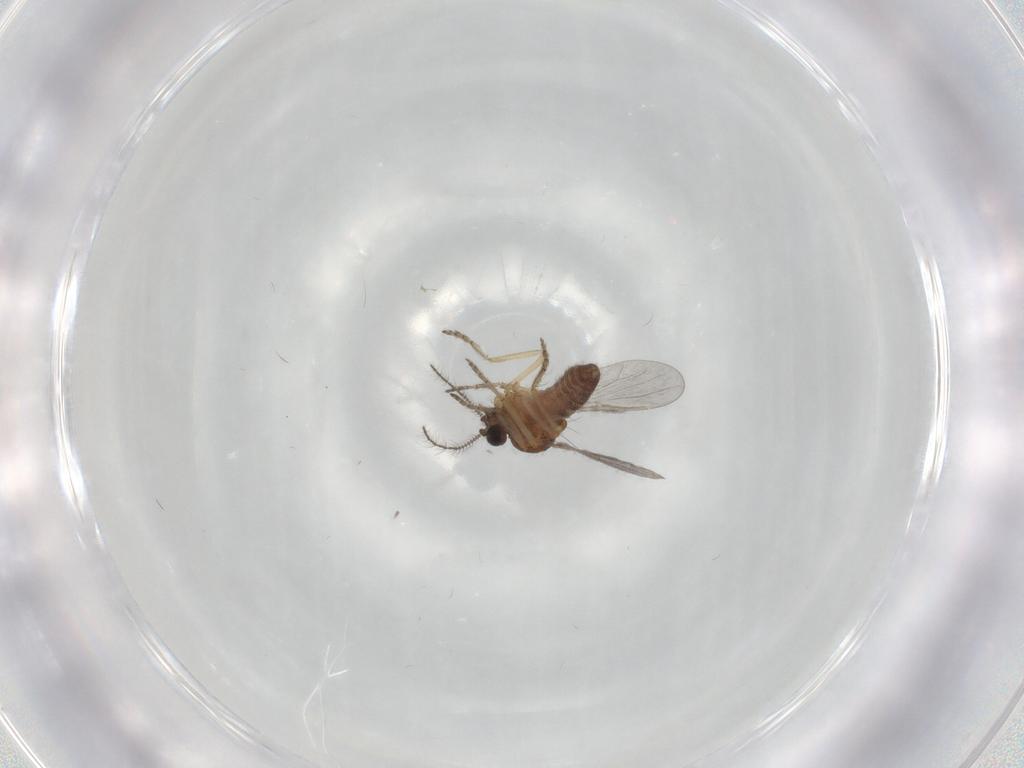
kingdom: Animalia
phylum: Arthropoda
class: Insecta
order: Diptera
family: Ceratopogonidae
